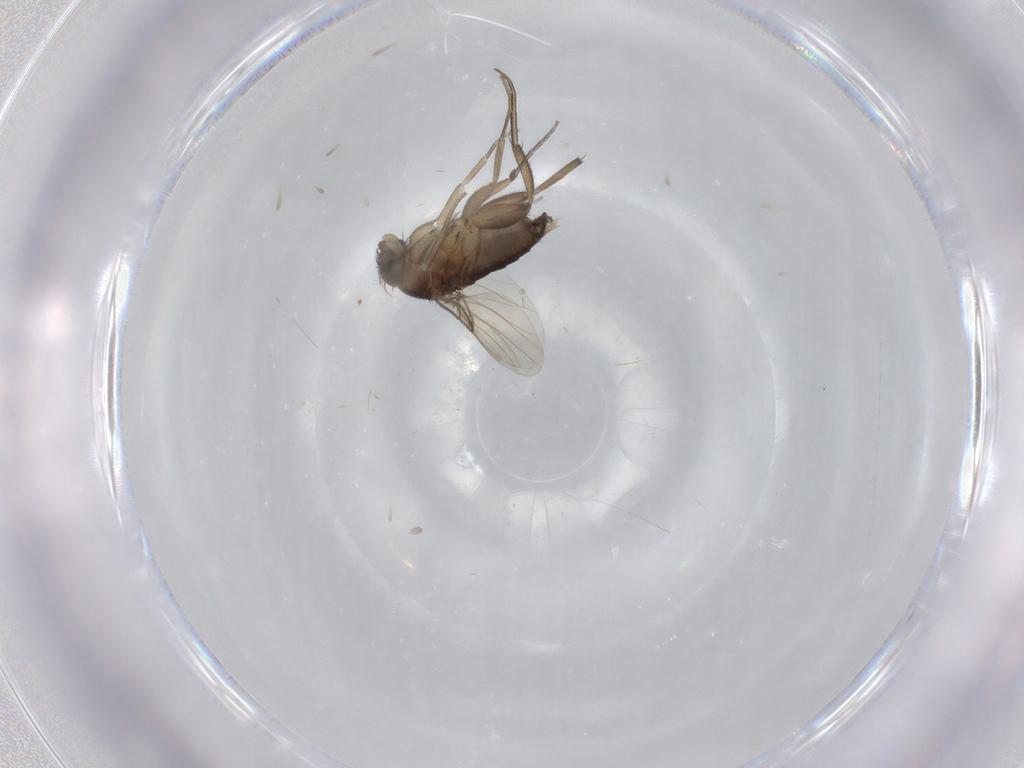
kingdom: Animalia
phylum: Arthropoda
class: Insecta
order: Diptera
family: Phoridae
